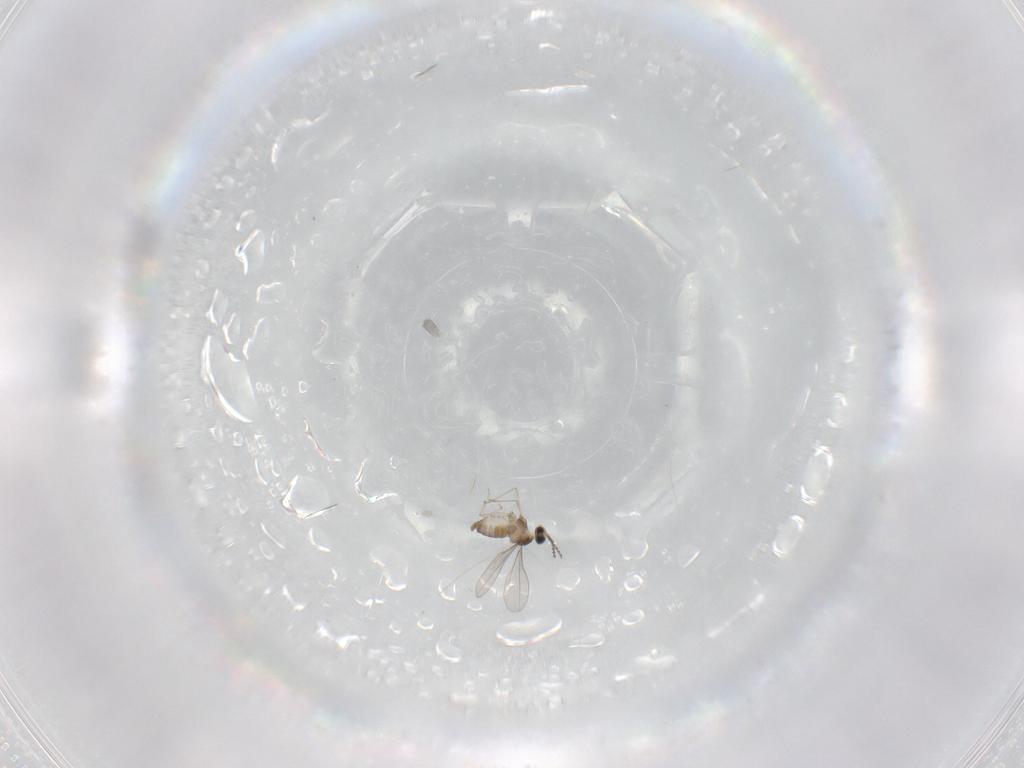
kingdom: Animalia
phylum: Arthropoda
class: Insecta
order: Diptera
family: Cecidomyiidae
